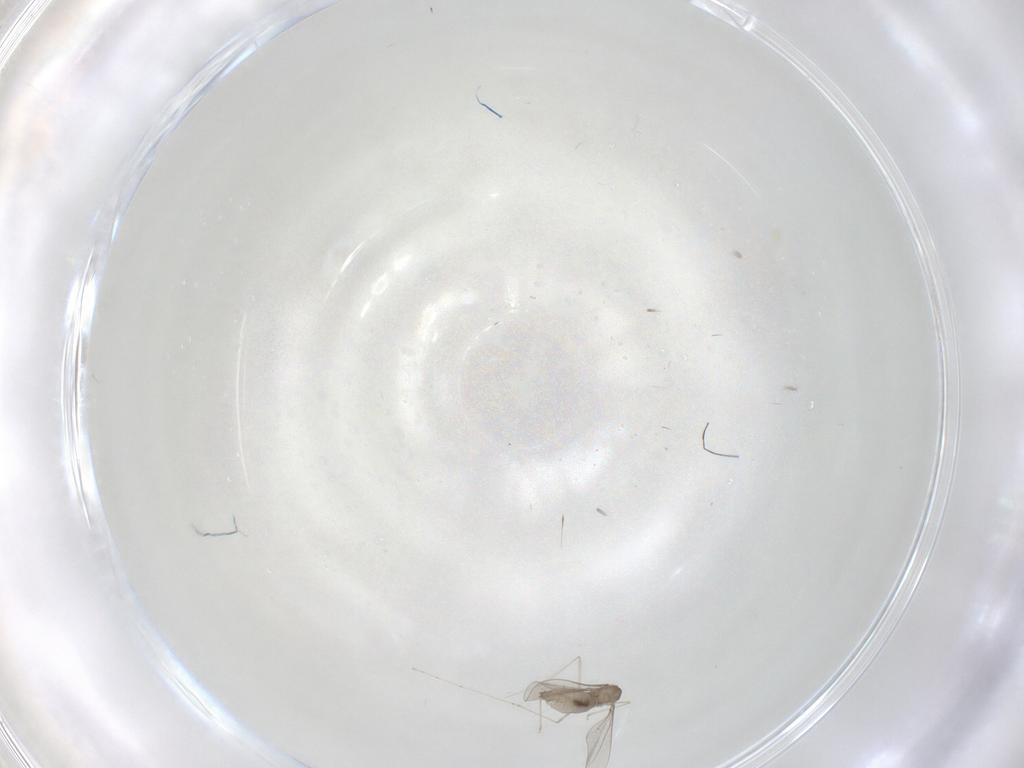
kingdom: Animalia
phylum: Arthropoda
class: Insecta
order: Diptera
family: Cecidomyiidae
